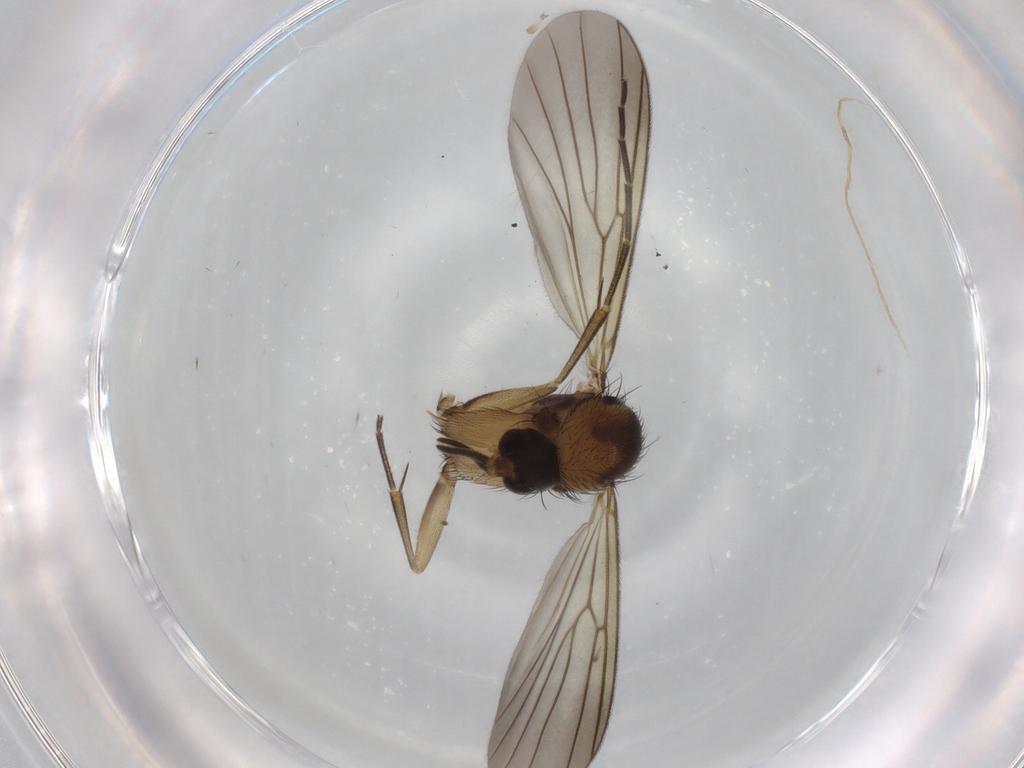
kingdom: Animalia
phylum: Arthropoda
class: Insecta
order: Diptera
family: Mycetophilidae
